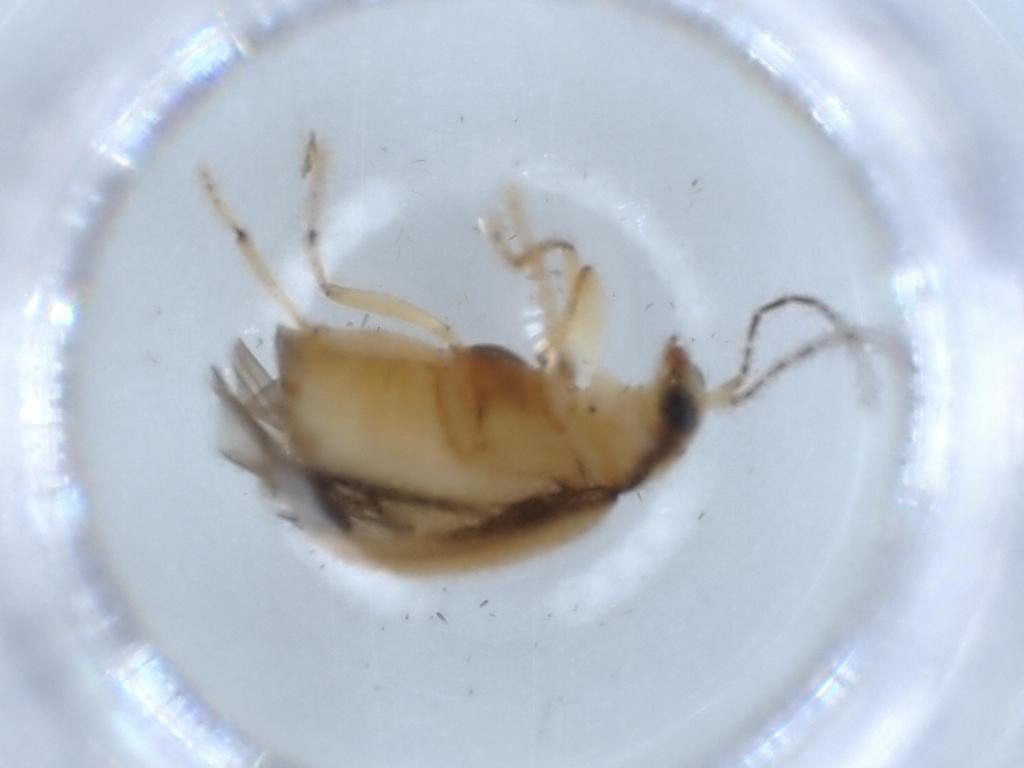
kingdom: Animalia
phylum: Arthropoda
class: Insecta
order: Coleoptera
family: Chrysomelidae
